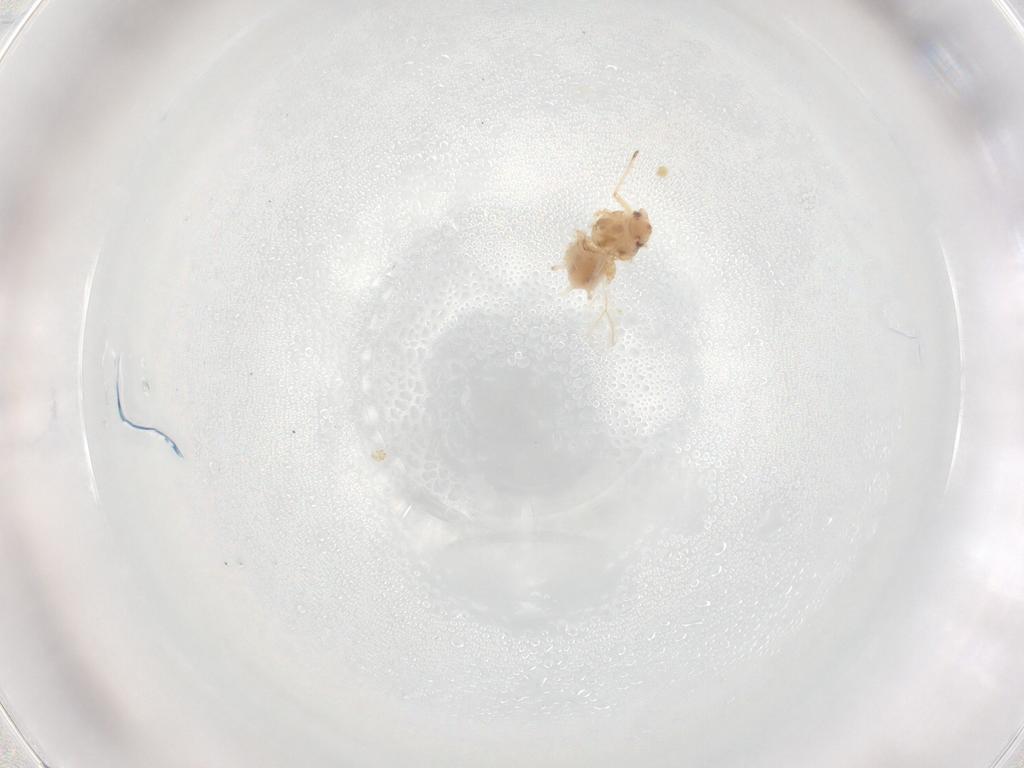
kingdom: Animalia
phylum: Arthropoda
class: Insecta
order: Hemiptera
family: Aphididae
